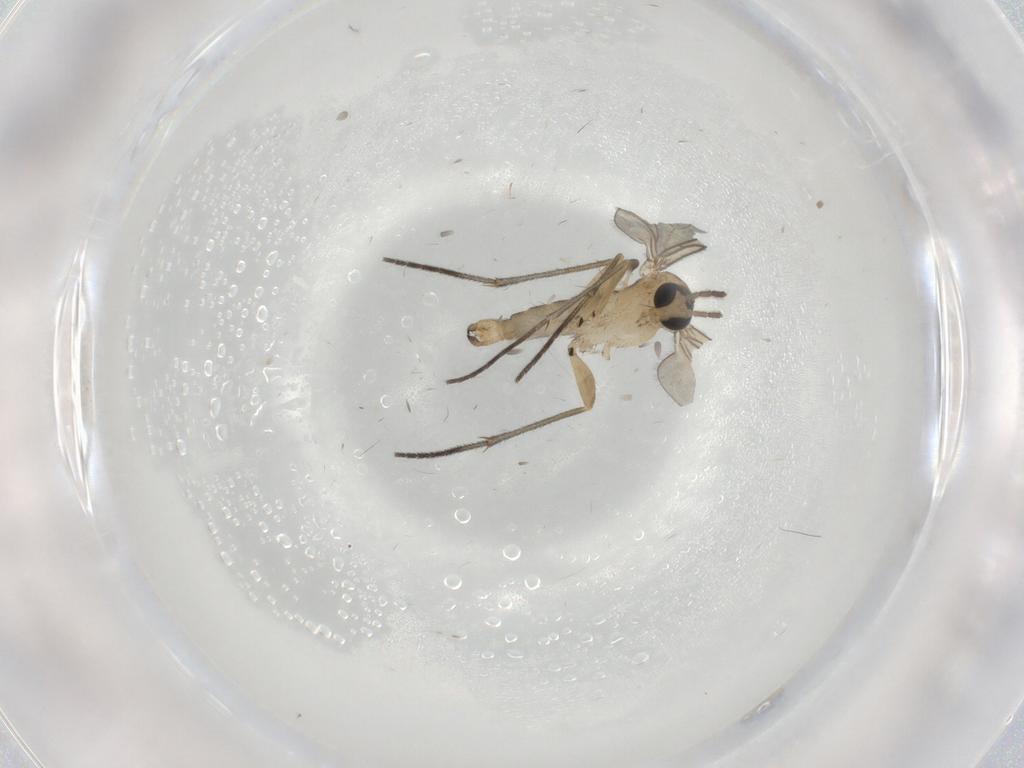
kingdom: Animalia
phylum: Arthropoda
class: Insecta
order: Diptera
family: Sciaridae
